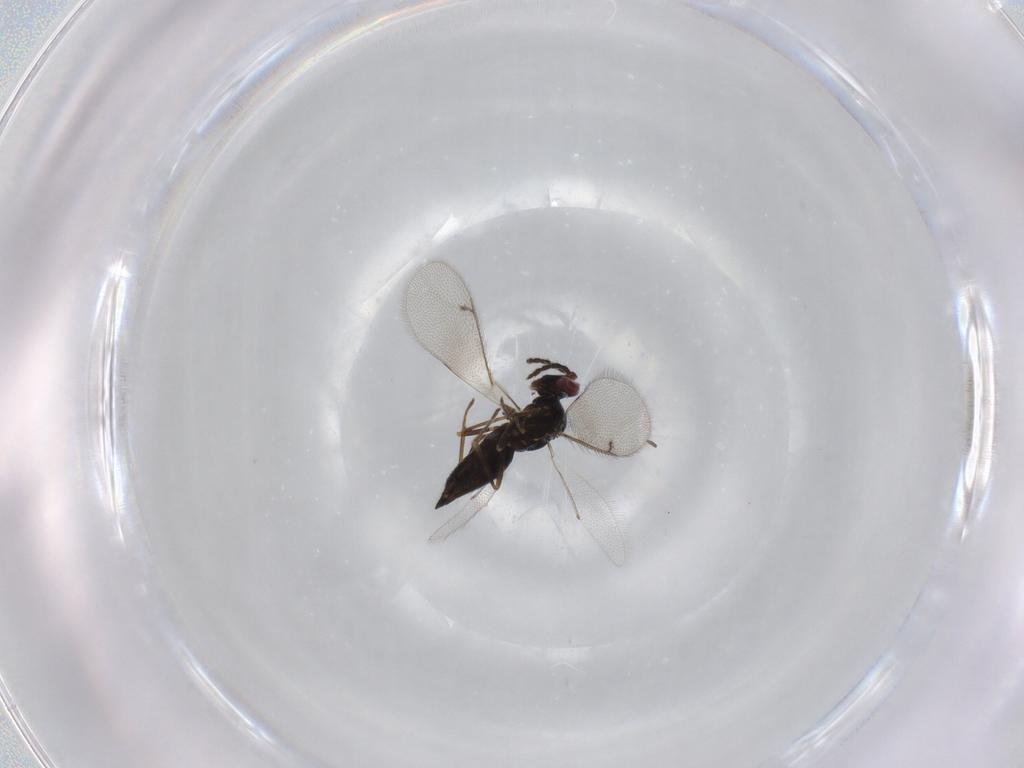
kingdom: Animalia
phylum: Arthropoda
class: Insecta
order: Hymenoptera
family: Eulophidae
